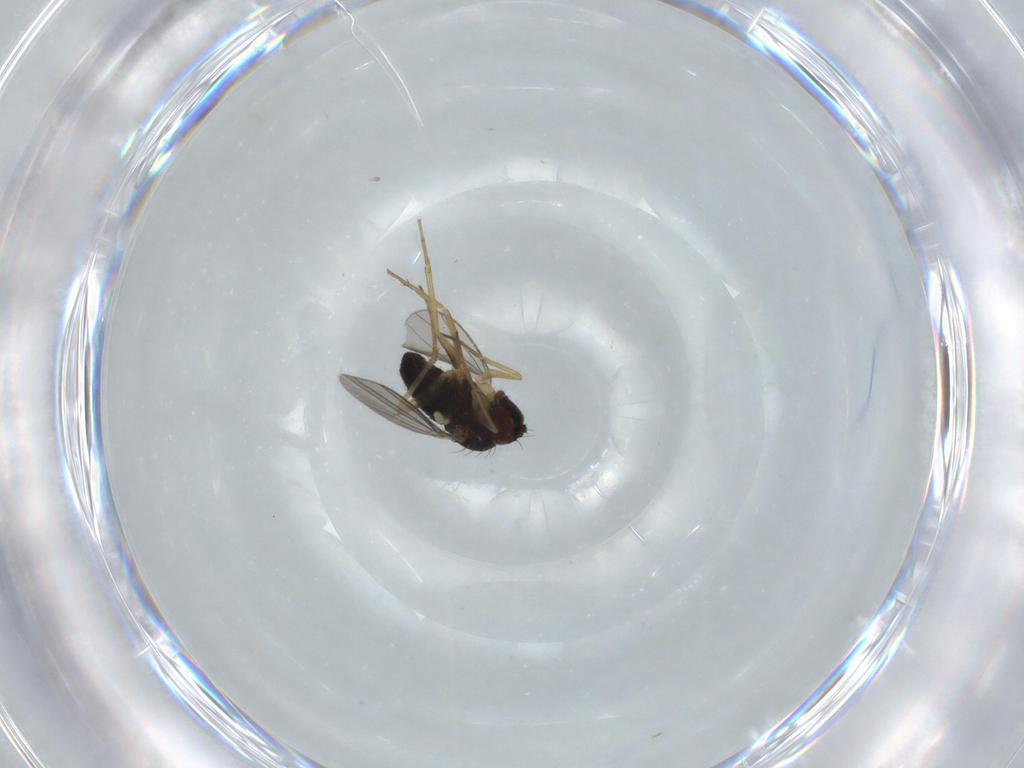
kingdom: Animalia
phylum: Arthropoda
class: Insecta
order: Diptera
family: Dolichopodidae
